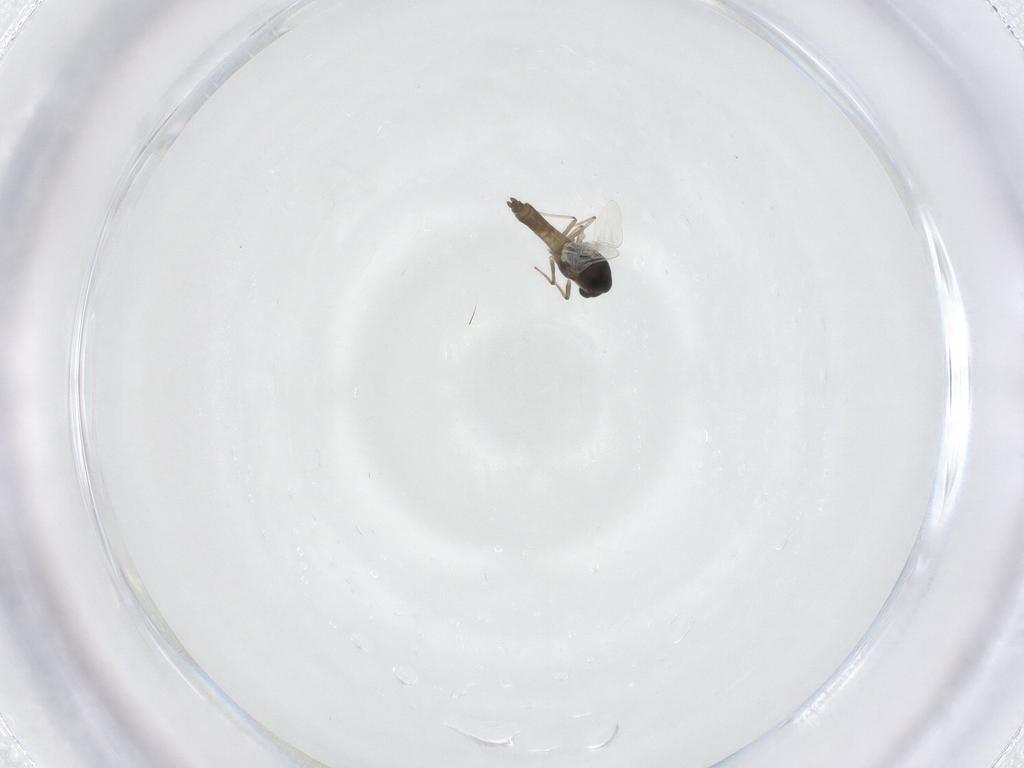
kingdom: Animalia
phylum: Arthropoda
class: Insecta
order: Diptera
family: Chironomidae
